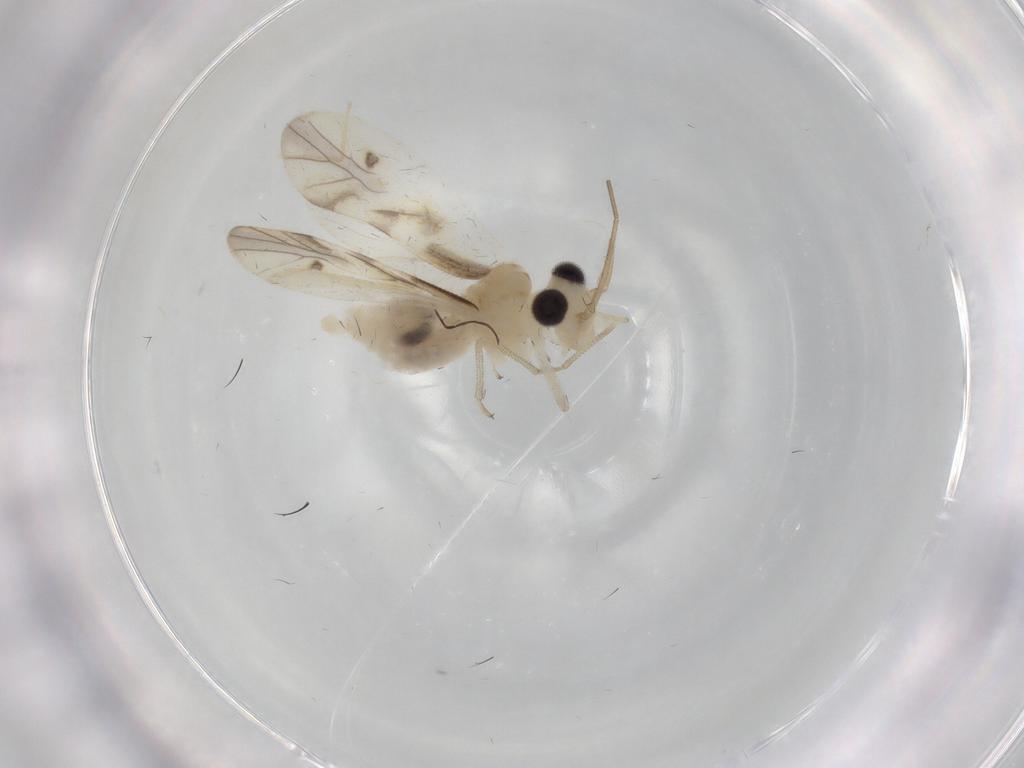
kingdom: Animalia
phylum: Arthropoda
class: Insecta
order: Psocodea
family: Caeciliusidae
